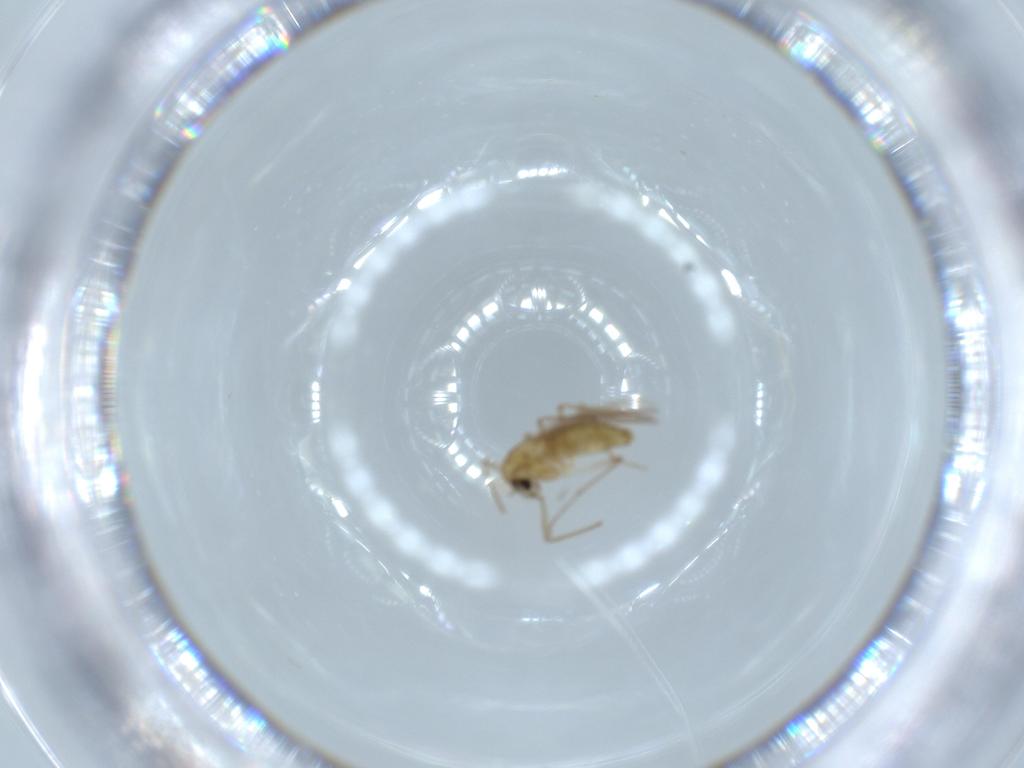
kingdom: Animalia
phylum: Arthropoda
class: Insecta
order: Diptera
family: Chironomidae
